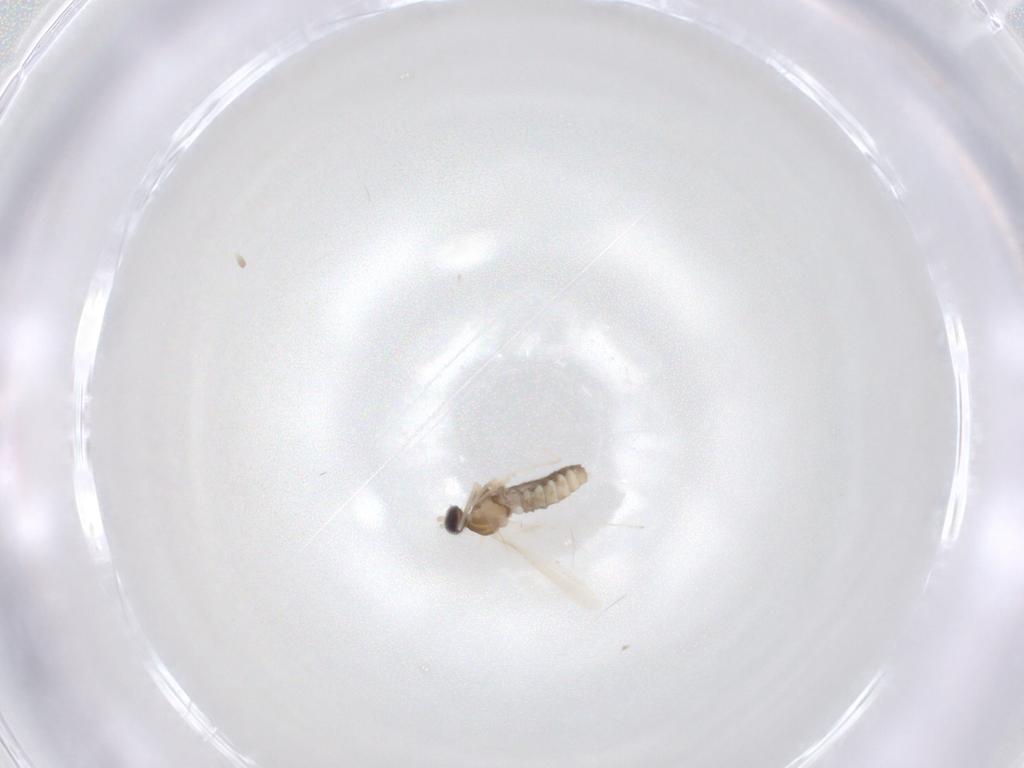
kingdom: Animalia
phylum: Arthropoda
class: Insecta
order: Diptera
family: Cecidomyiidae
